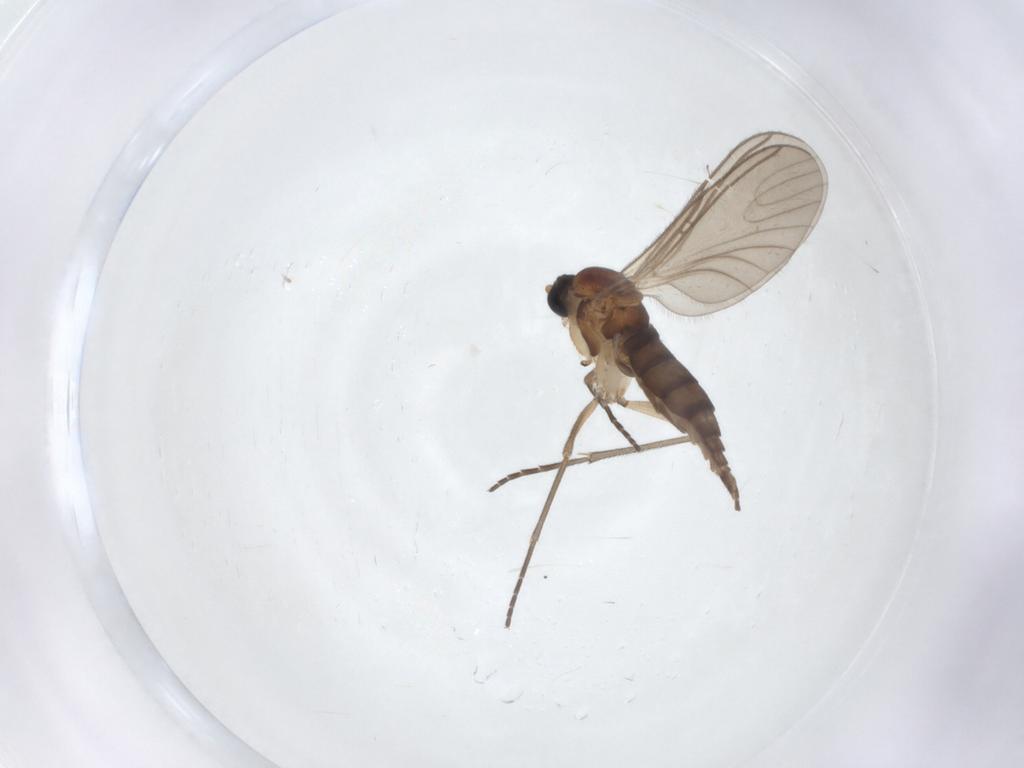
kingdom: Animalia
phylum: Arthropoda
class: Insecta
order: Diptera
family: Sciaridae
